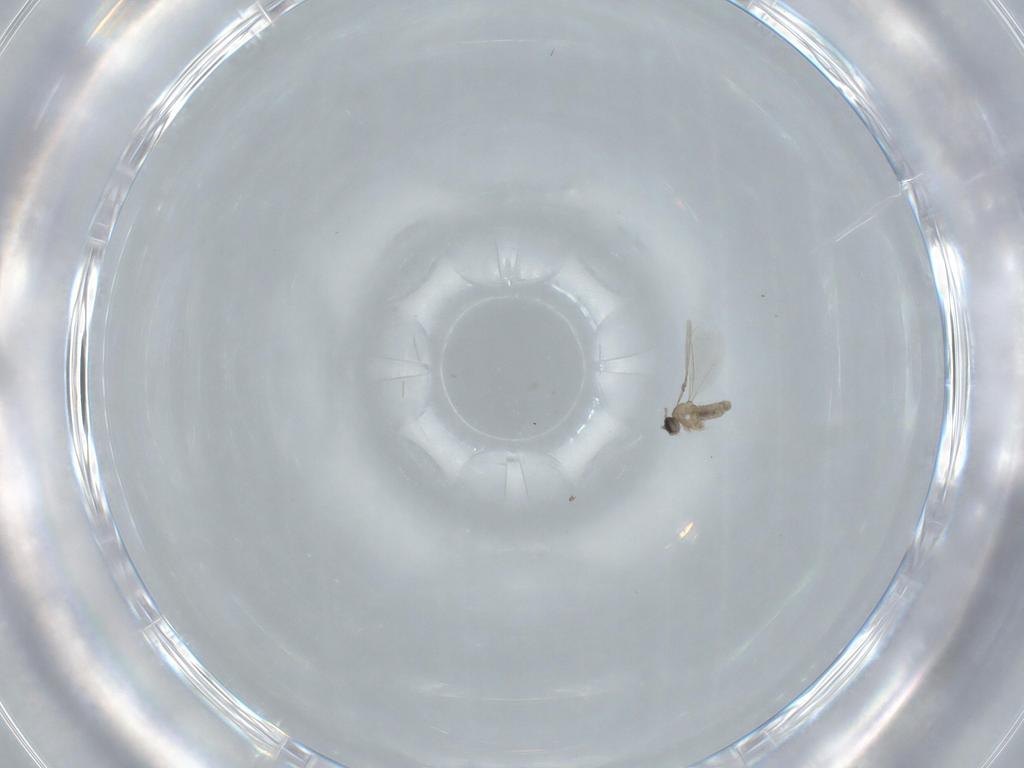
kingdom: Animalia
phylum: Arthropoda
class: Insecta
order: Diptera
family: Cecidomyiidae
